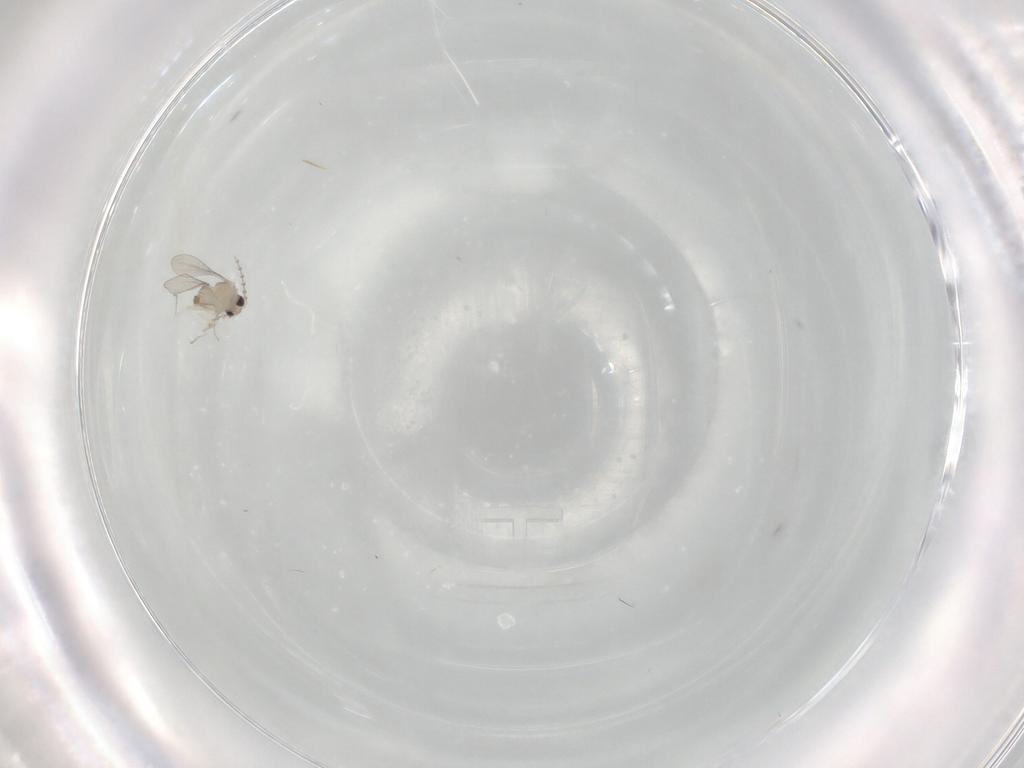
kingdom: Animalia
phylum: Arthropoda
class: Insecta
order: Diptera
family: Cecidomyiidae
